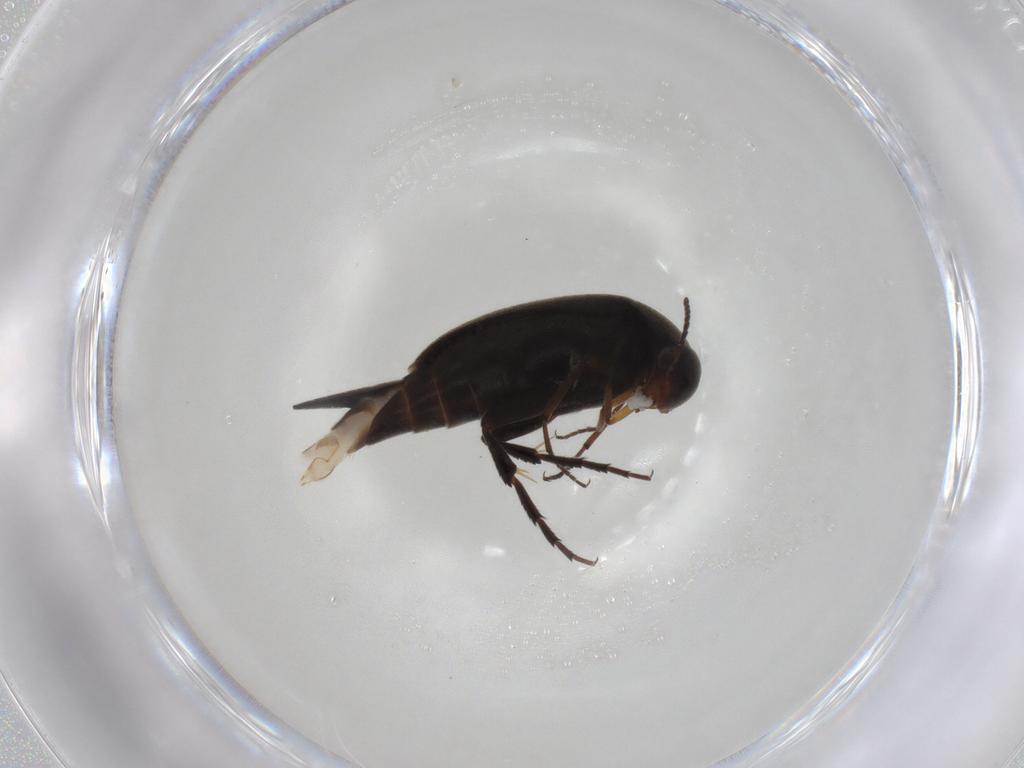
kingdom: Animalia
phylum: Arthropoda
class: Insecta
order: Coleoptera
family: Mordellidae
